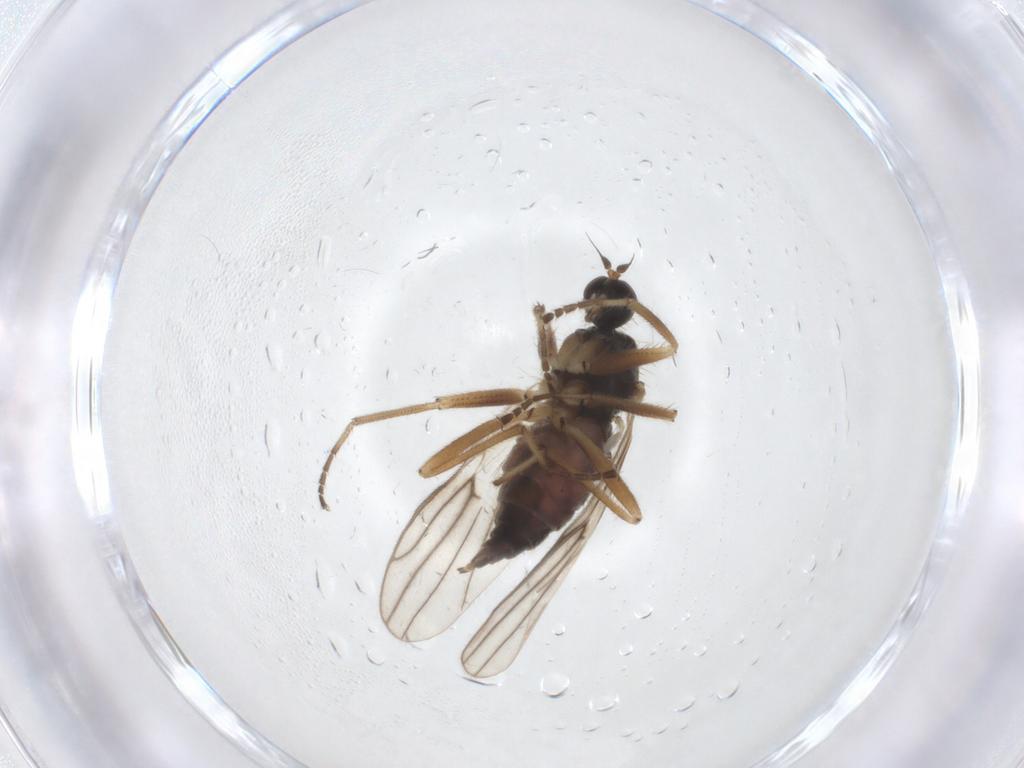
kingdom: Animalia
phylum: Arthropoda
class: Insecta
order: Diptera
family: Hybotidae
